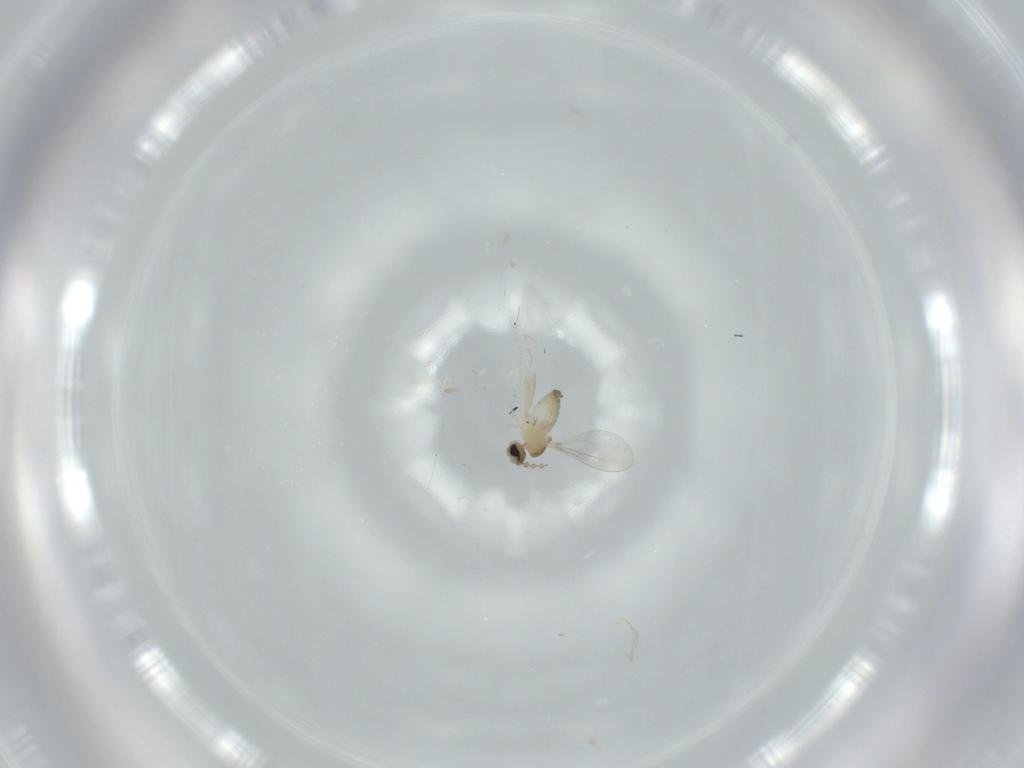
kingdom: Animalia
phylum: Arthropoda
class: Insecta
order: Diptera
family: Cecidomyiidae
